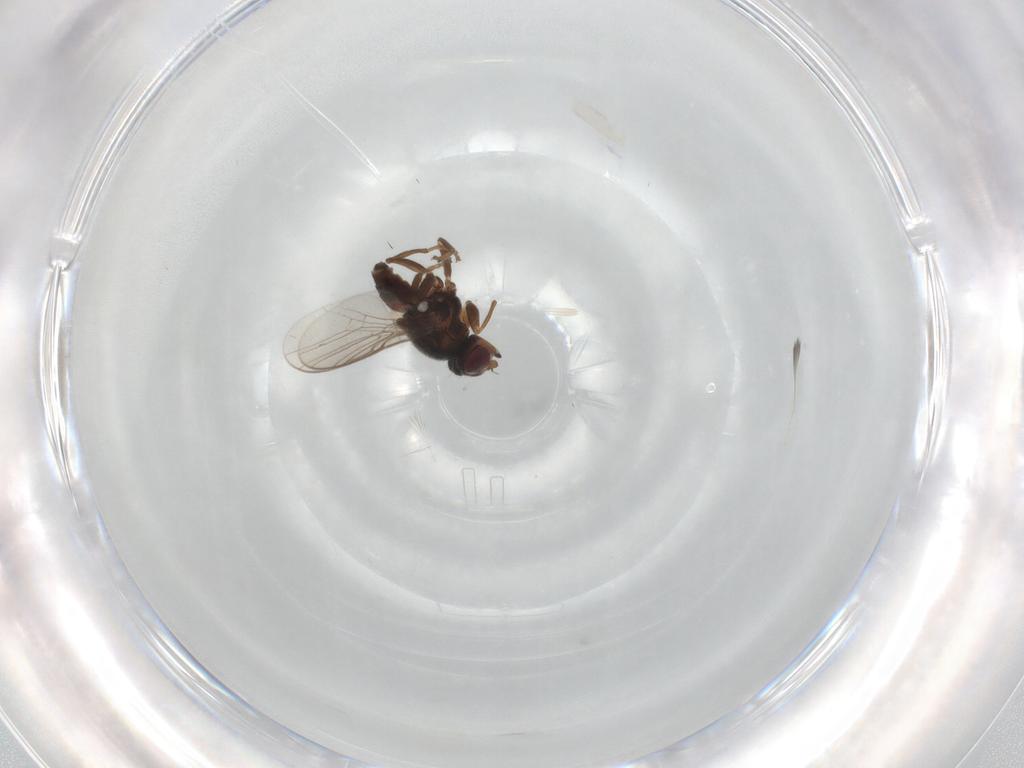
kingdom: Animalia
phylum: Arthropoda
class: Insecta
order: Diptera
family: Chloropidae
